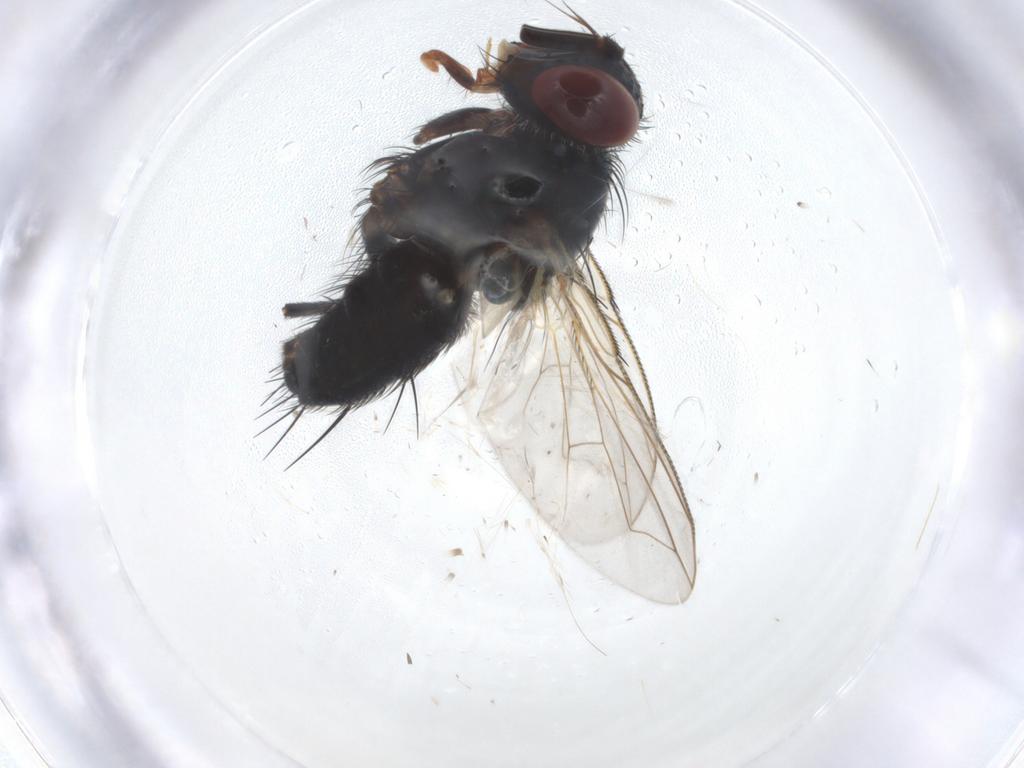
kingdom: Animalia
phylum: Arthropoda
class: Insecta
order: Diptera
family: Tachinidae
